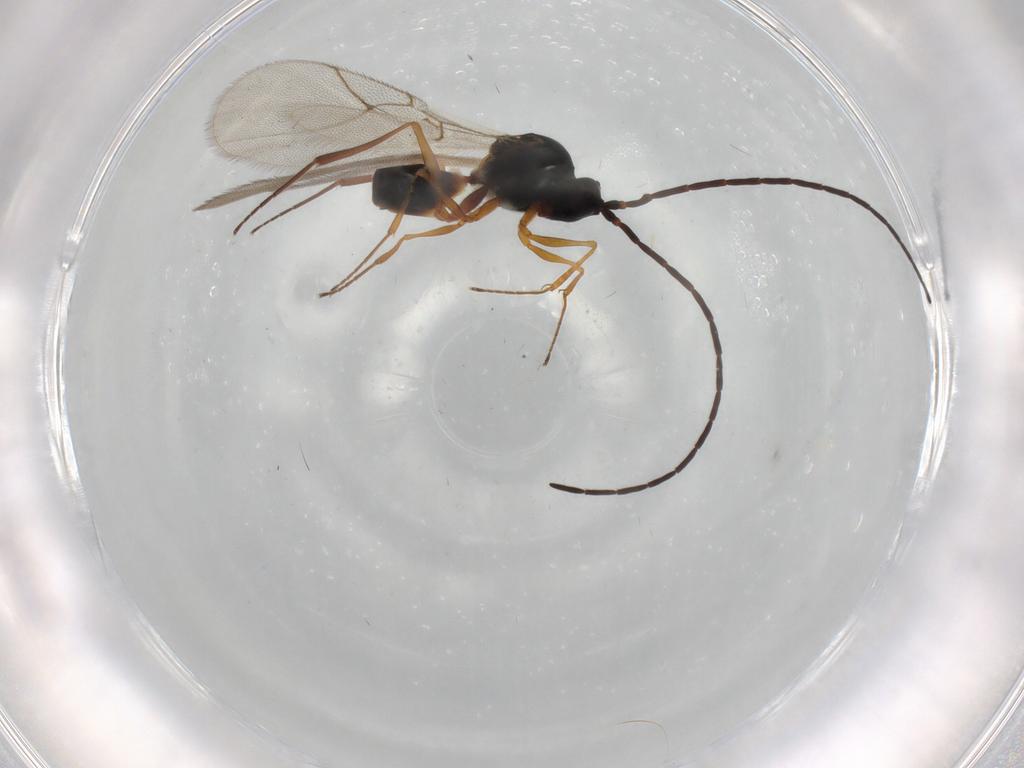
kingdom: Animalia
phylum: Arthropoda
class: Insecta
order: Hymenoptera
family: Figitidae
